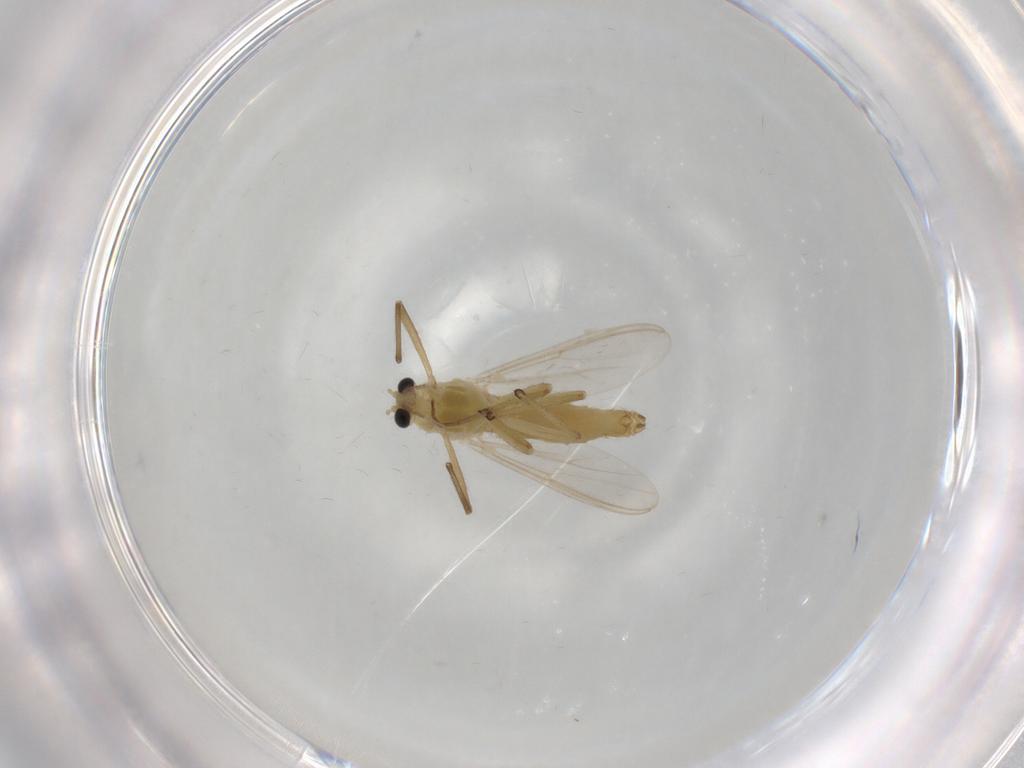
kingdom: Animalia
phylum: Arthropoda
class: Insecta
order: Diptera
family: Chironomidae
